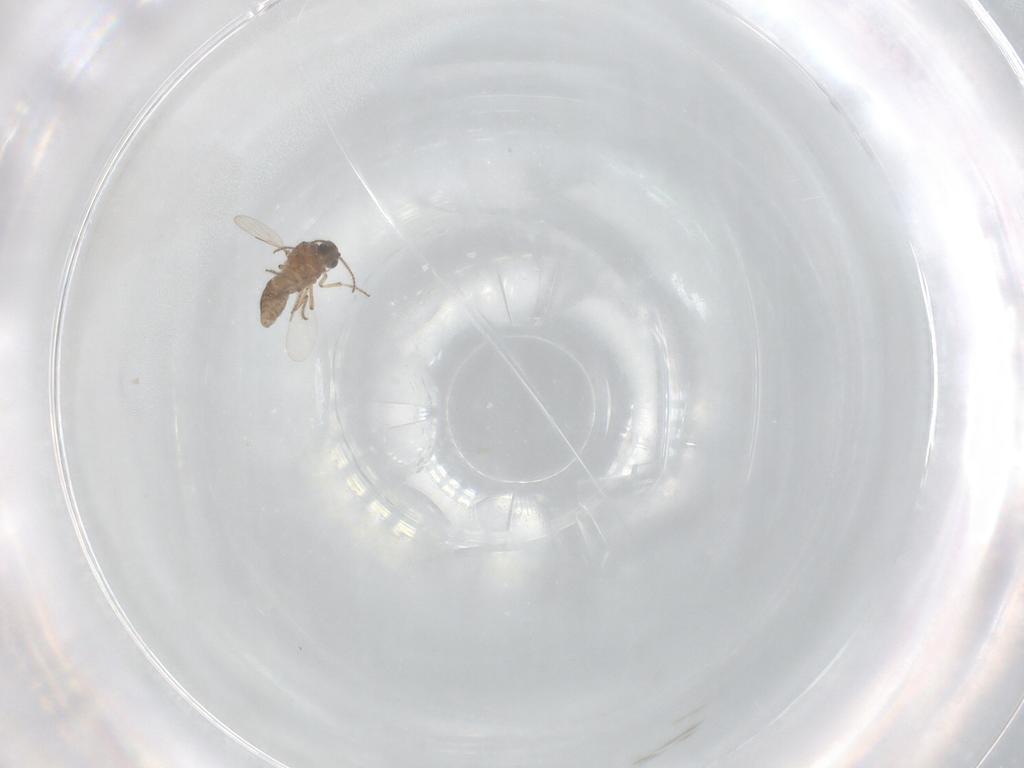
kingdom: Animalia
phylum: Arthropoda
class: Insecta
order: Diptera
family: Ceratopogonidae
